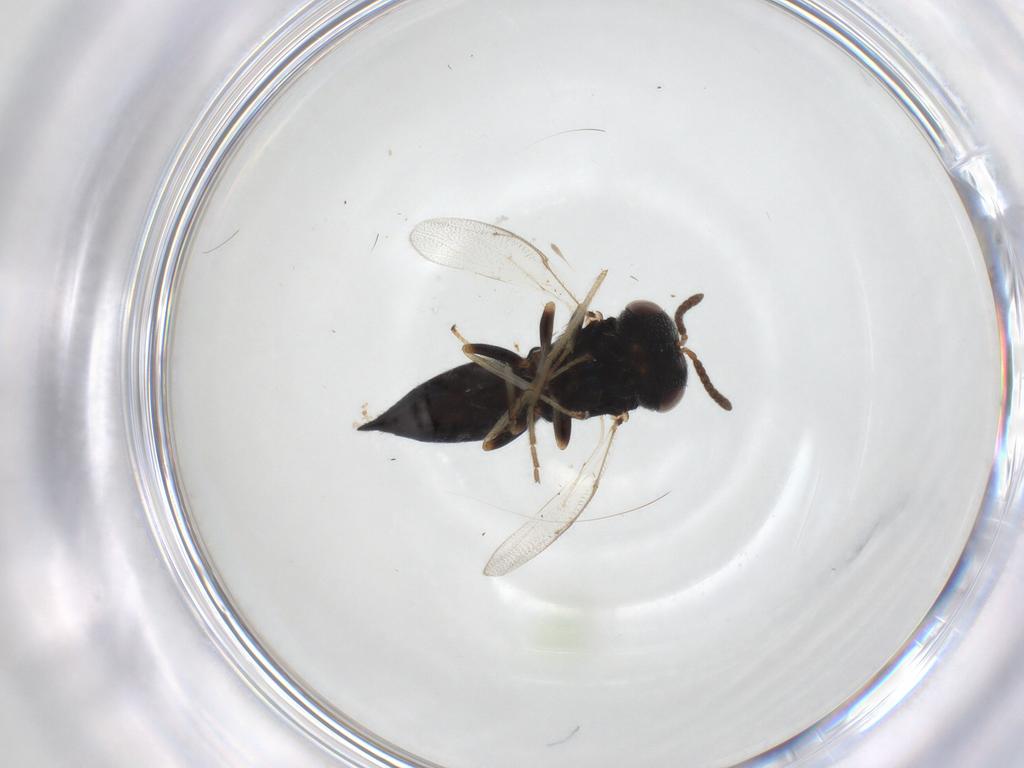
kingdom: Animalia
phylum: Arthropoda
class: Insecta
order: Hymenoptera
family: Pteromalidae
